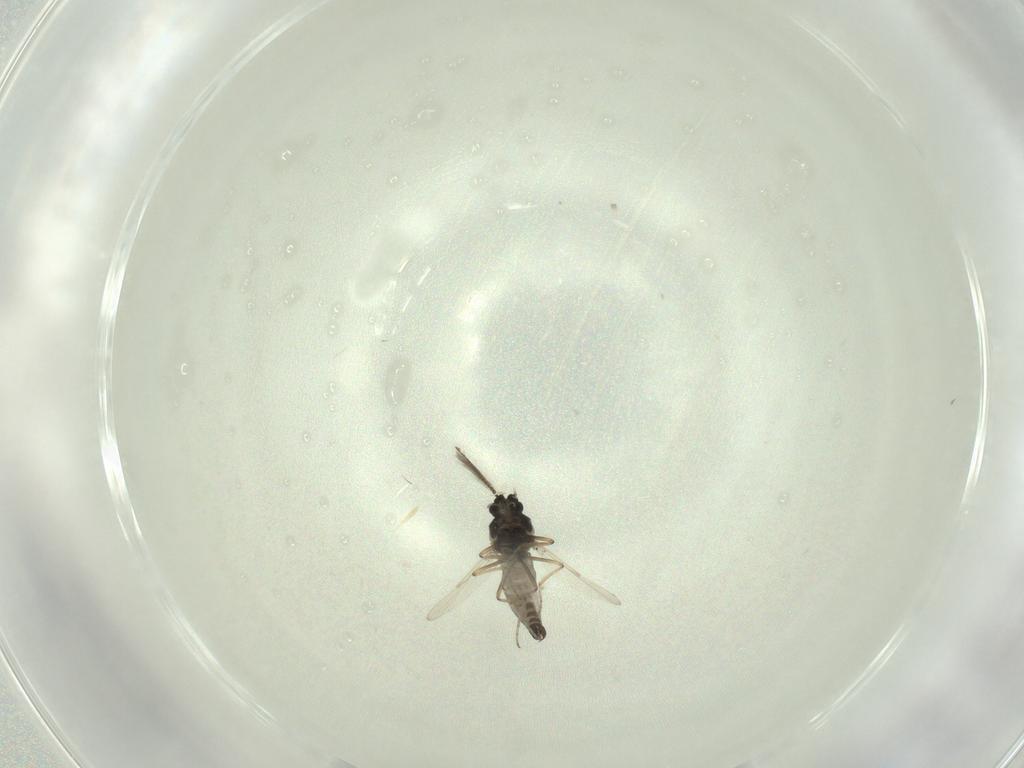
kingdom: Animalia
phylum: Arthropoda
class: Insecta
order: Diptera
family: Ceratopogonidae
